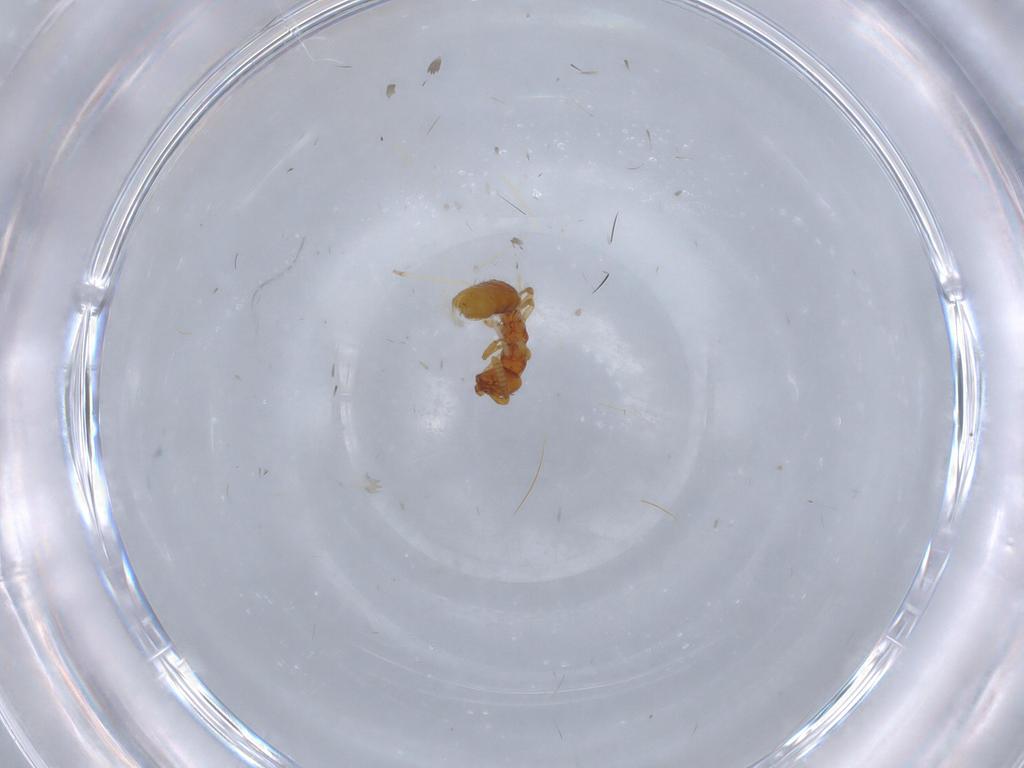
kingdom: Animalia
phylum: Arthropoda
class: Insecta
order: Hymenoptera
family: Bethylidae
